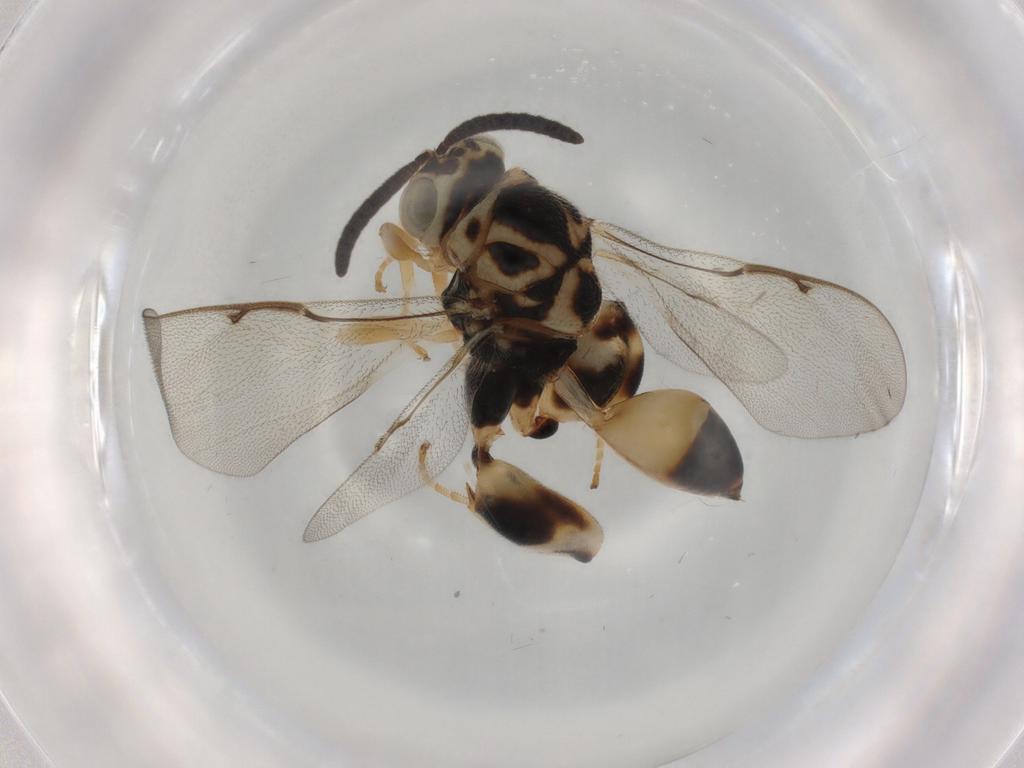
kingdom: Animalia
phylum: Arthropoda
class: Insecta
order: Hymenoptera
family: Chalcididae
